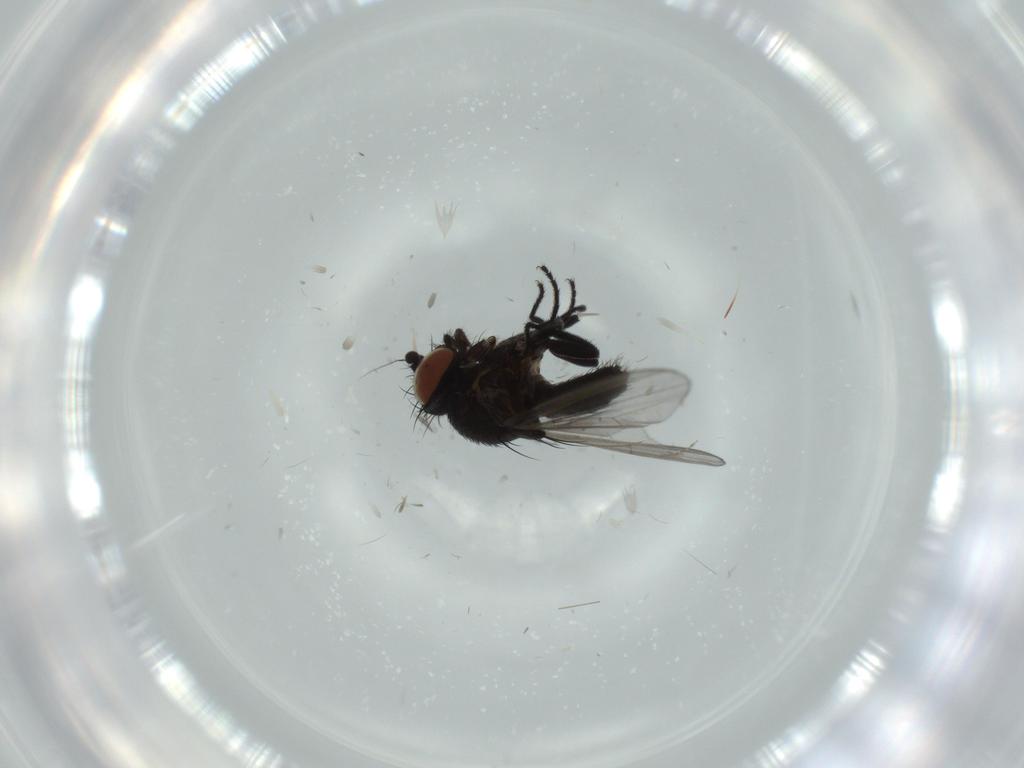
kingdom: Animalia
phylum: Arthropoda
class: Insecta
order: Diptera
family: Milichiidae
